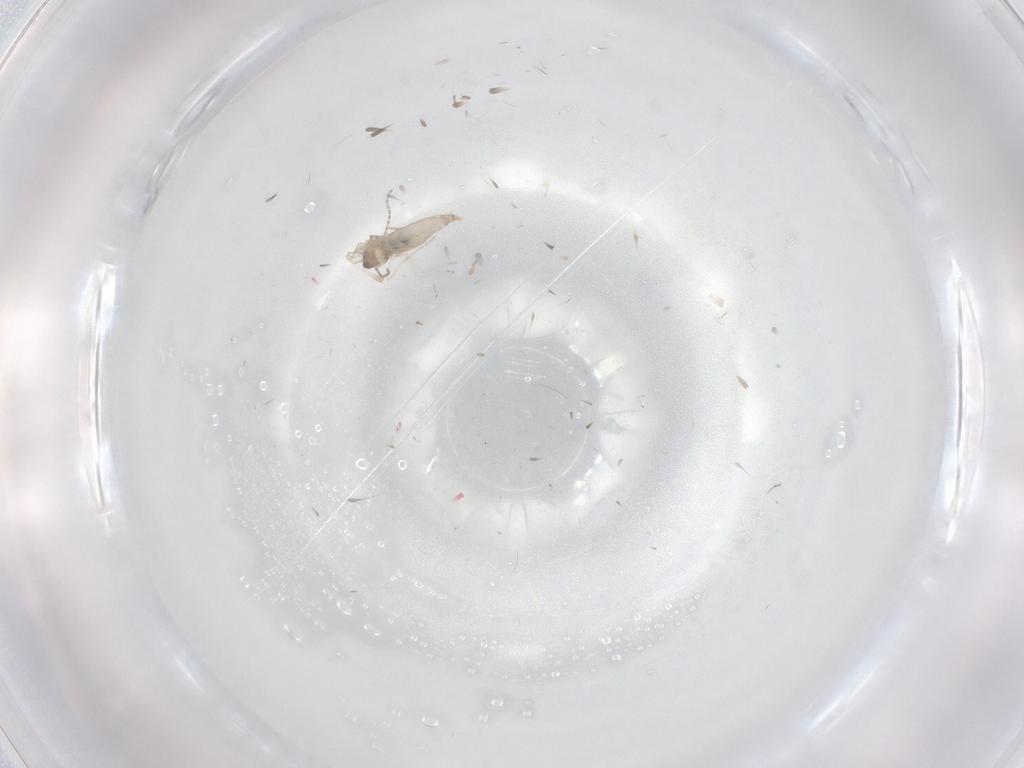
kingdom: Animalia
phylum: Arthropoda
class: Insecta
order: Diptera
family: Cecidomyiidae
